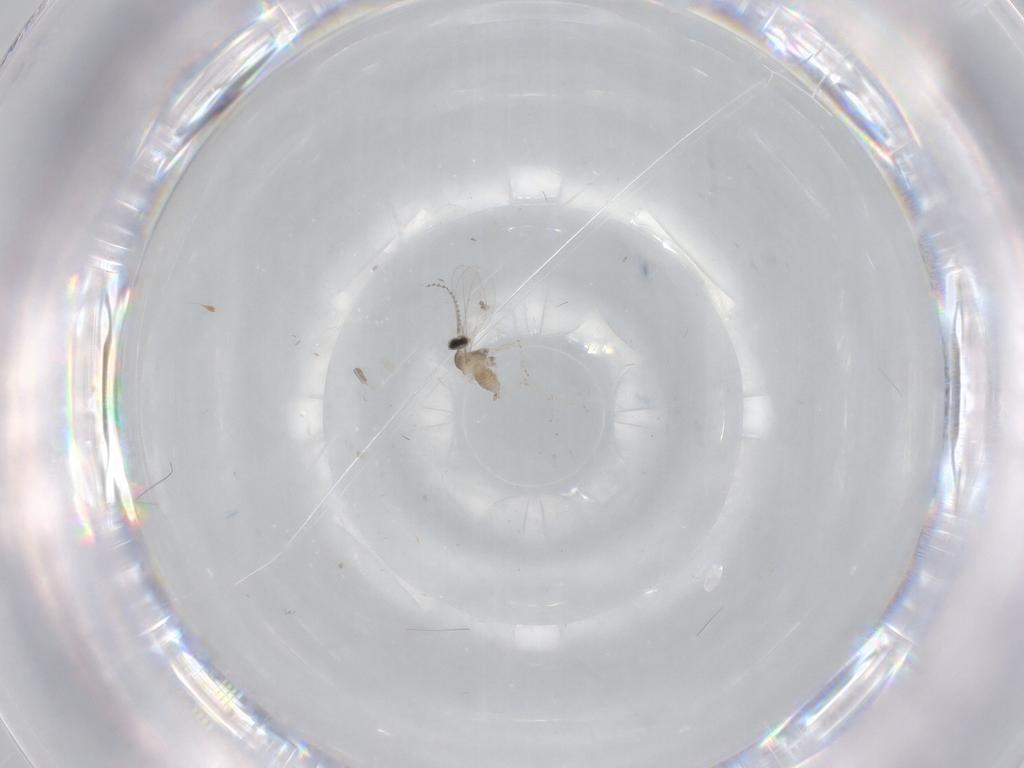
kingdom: Animalia
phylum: Arthropoda
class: Insecta
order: Diptera
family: Cecidomyiidae
